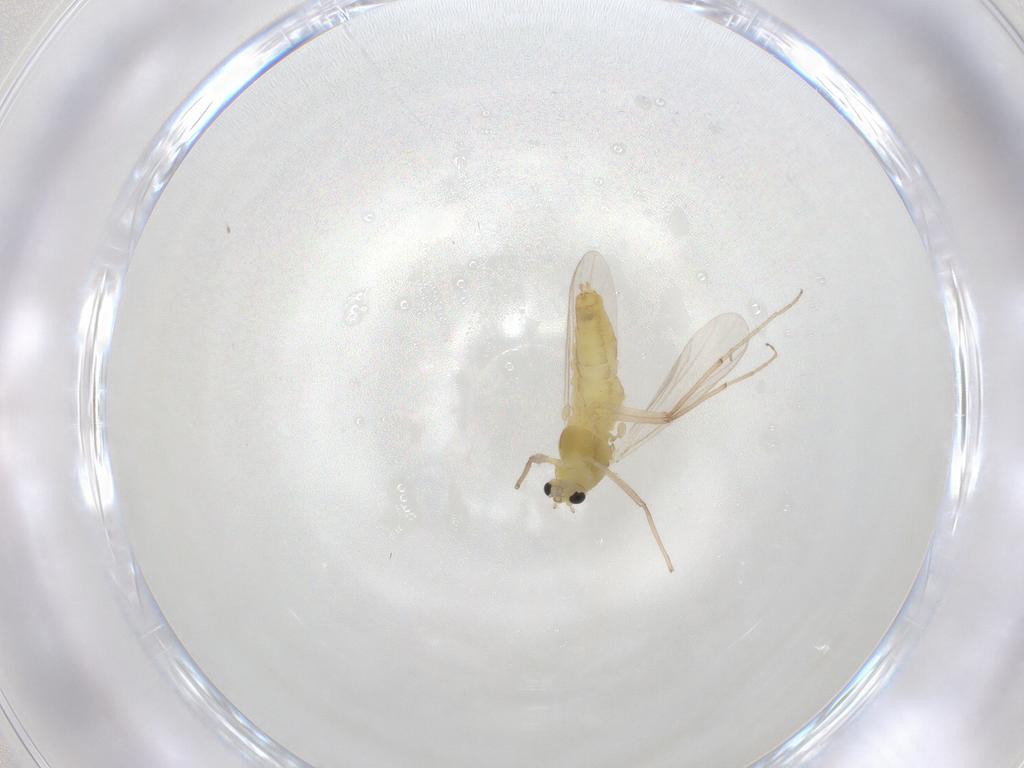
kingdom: Animalia
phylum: Arthropoda
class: Insecta
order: Diptera
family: Chironomidae
